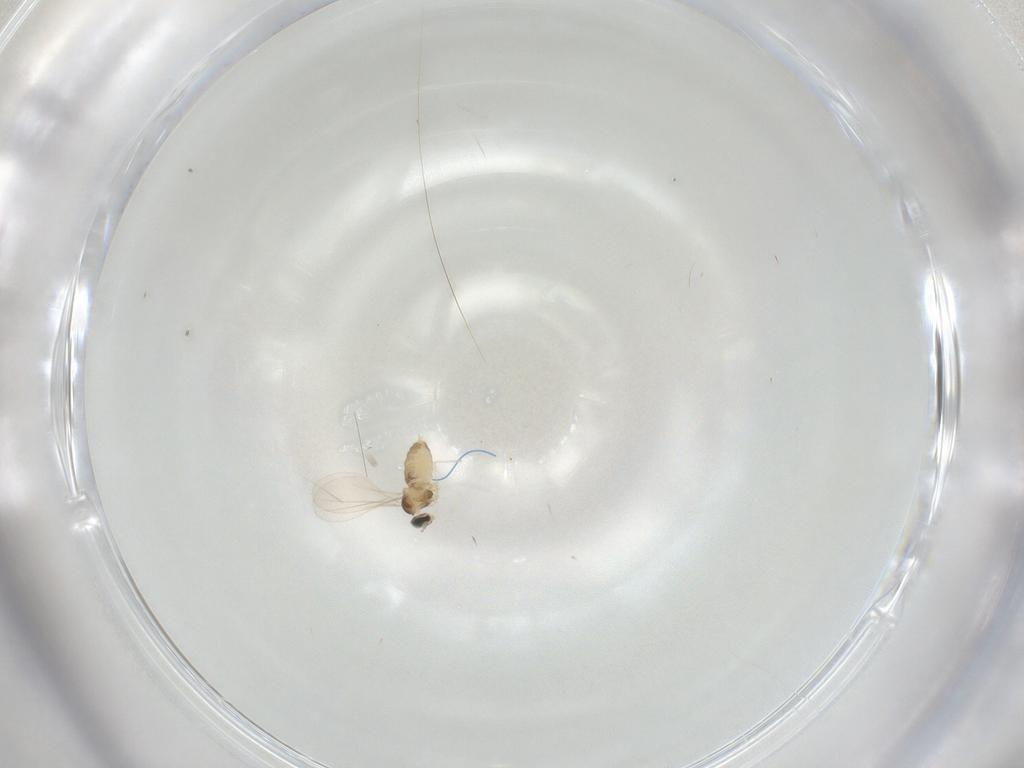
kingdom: Animalia
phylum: Arthropoda
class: Insecta
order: Diptera
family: Cecidomyiidae
